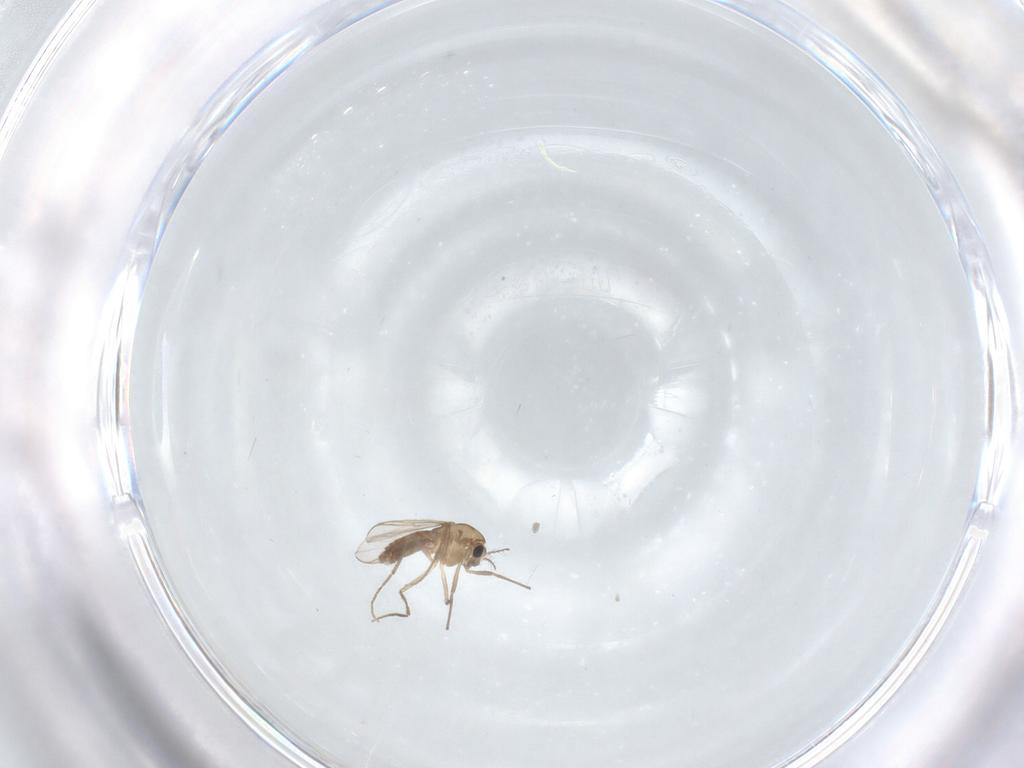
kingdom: Animalia
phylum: Arthropoda
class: Insecta
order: Diptera
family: Chironomidae
